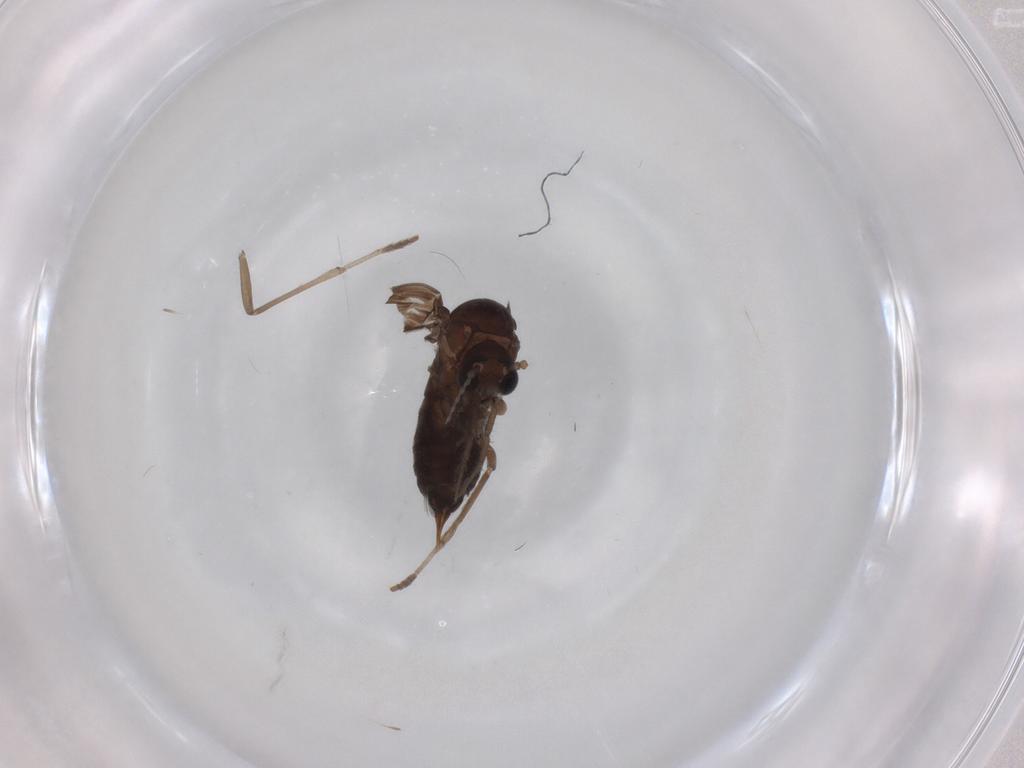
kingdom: Animalia
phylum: Arthropoda
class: Insecta
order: Diptera
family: Psychodidae
